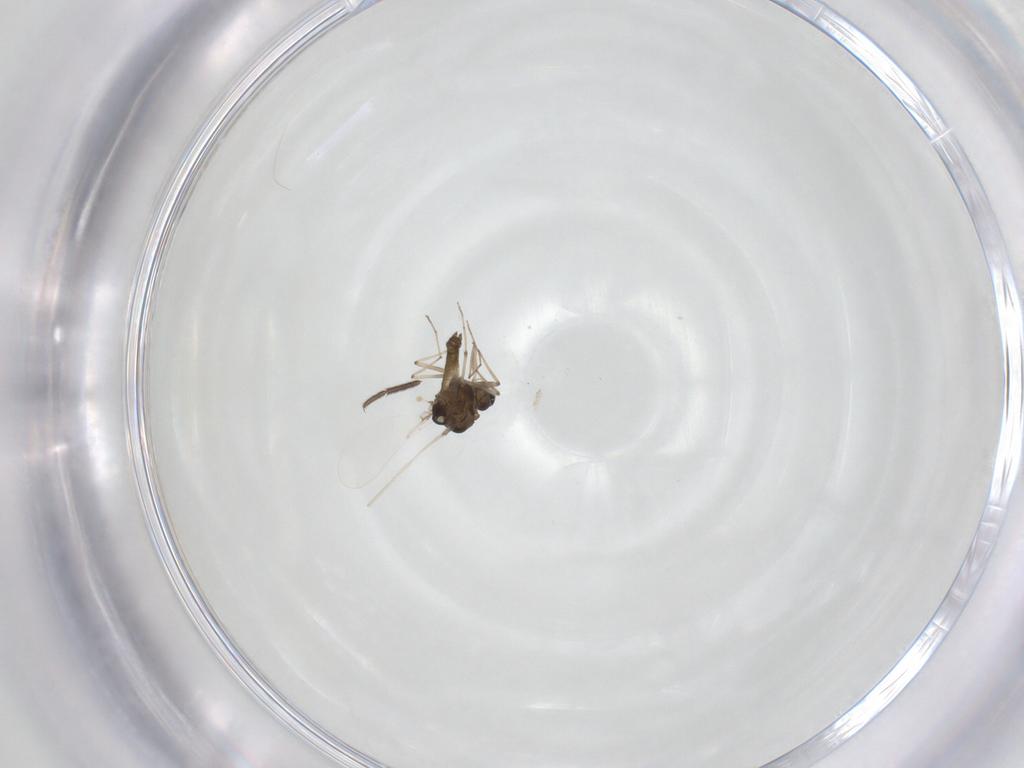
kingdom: Animalia
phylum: Arthropoda
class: Insecta
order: Diptera
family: Chironomidae
